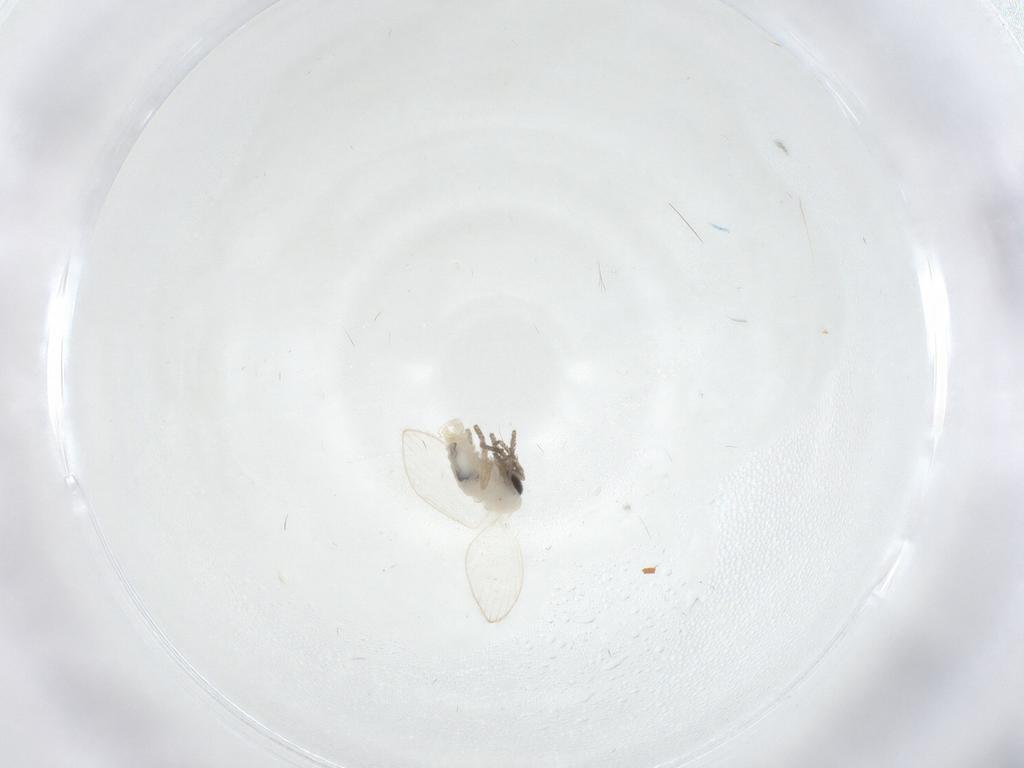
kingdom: Animalia
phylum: Arthropoda
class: Insecta
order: Diptera
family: Psychodidae
